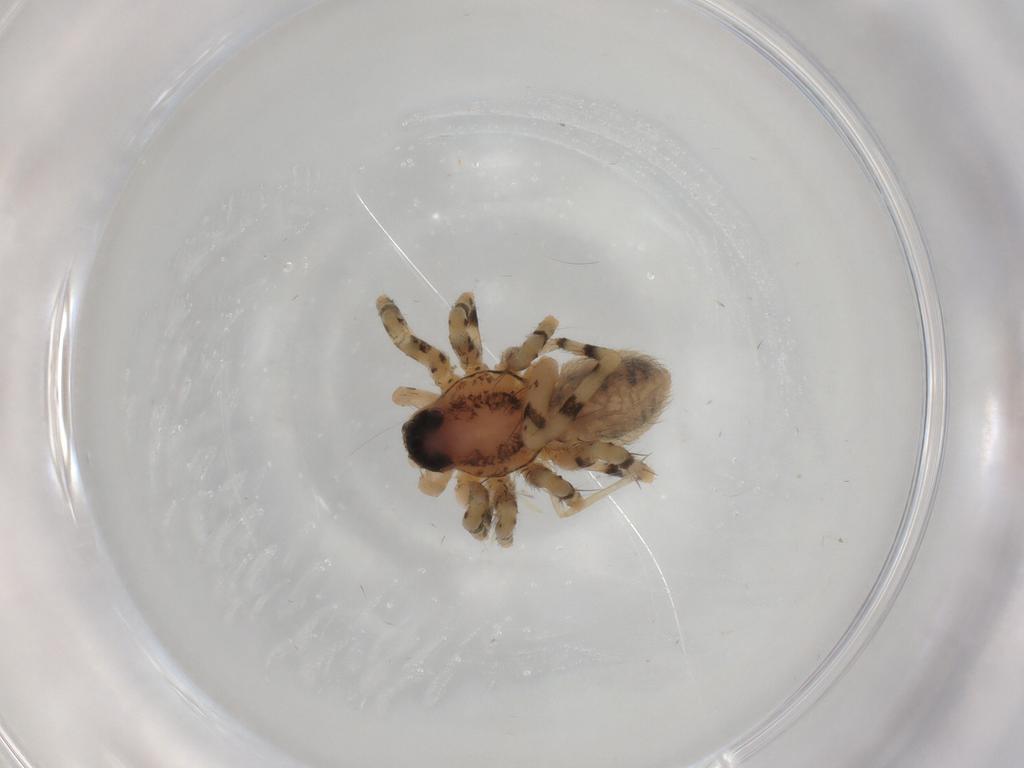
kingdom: Animalia
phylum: Arthropoda
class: Arachnida
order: Araneae
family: Lycosidae
